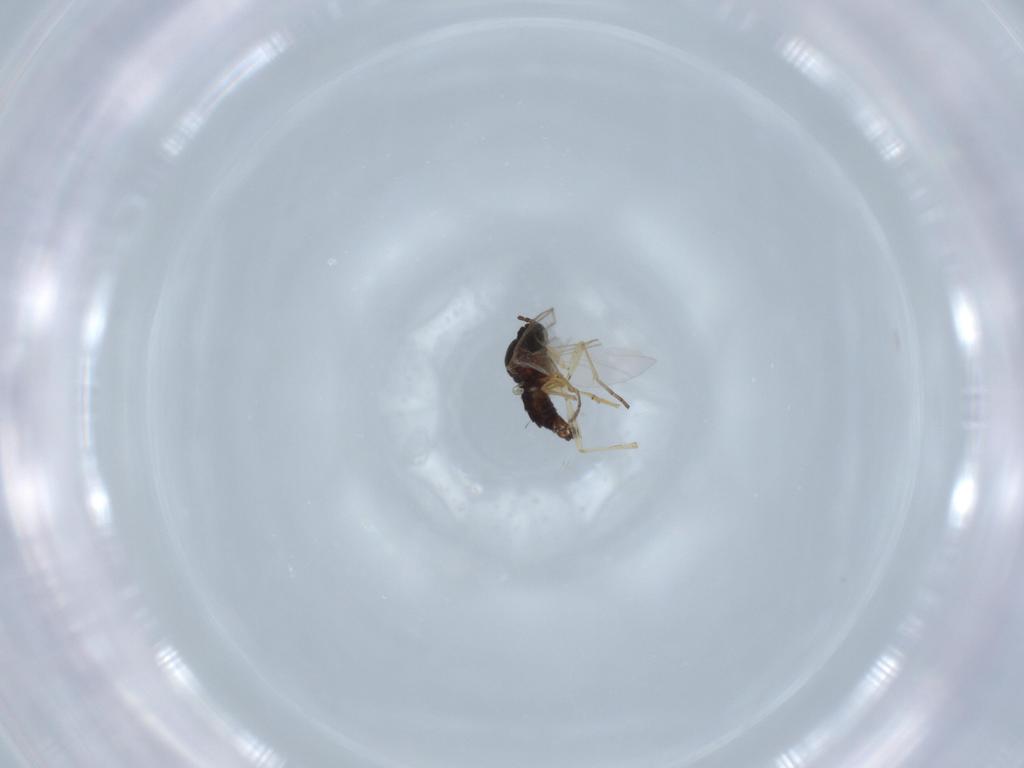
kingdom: Animalia
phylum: Arthropoda
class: Insecta
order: Diptera
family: Sciaridae
